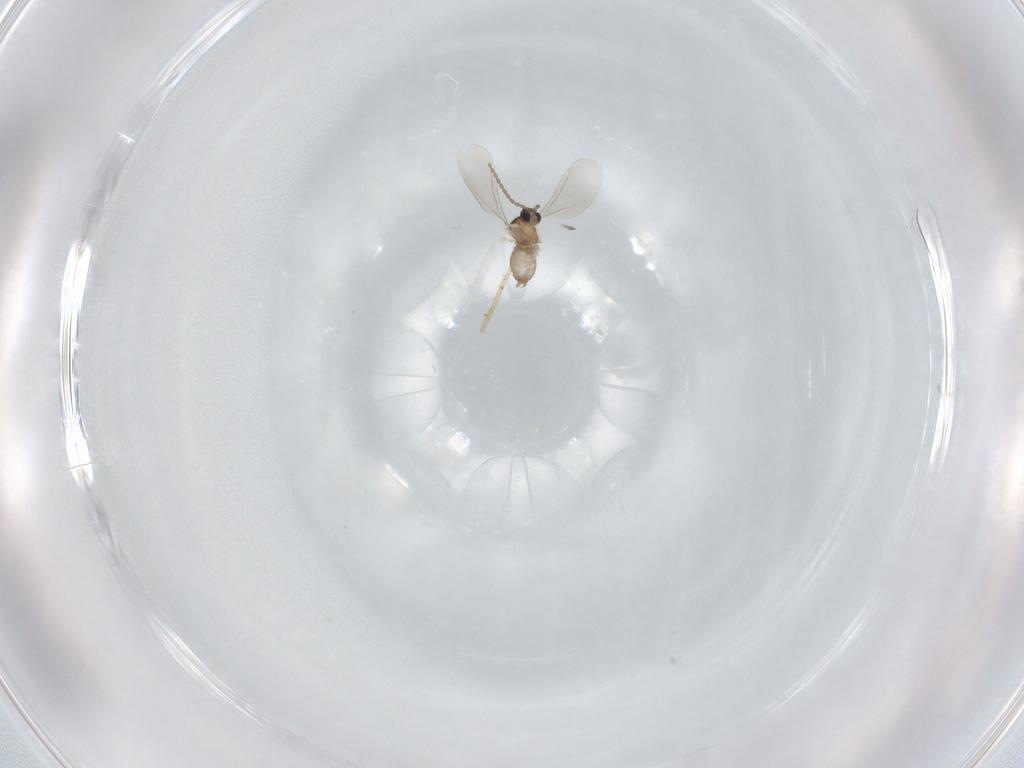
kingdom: Animalia
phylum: Arthropoda
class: Insecta
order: Diptera
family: Cecidomyiidae
